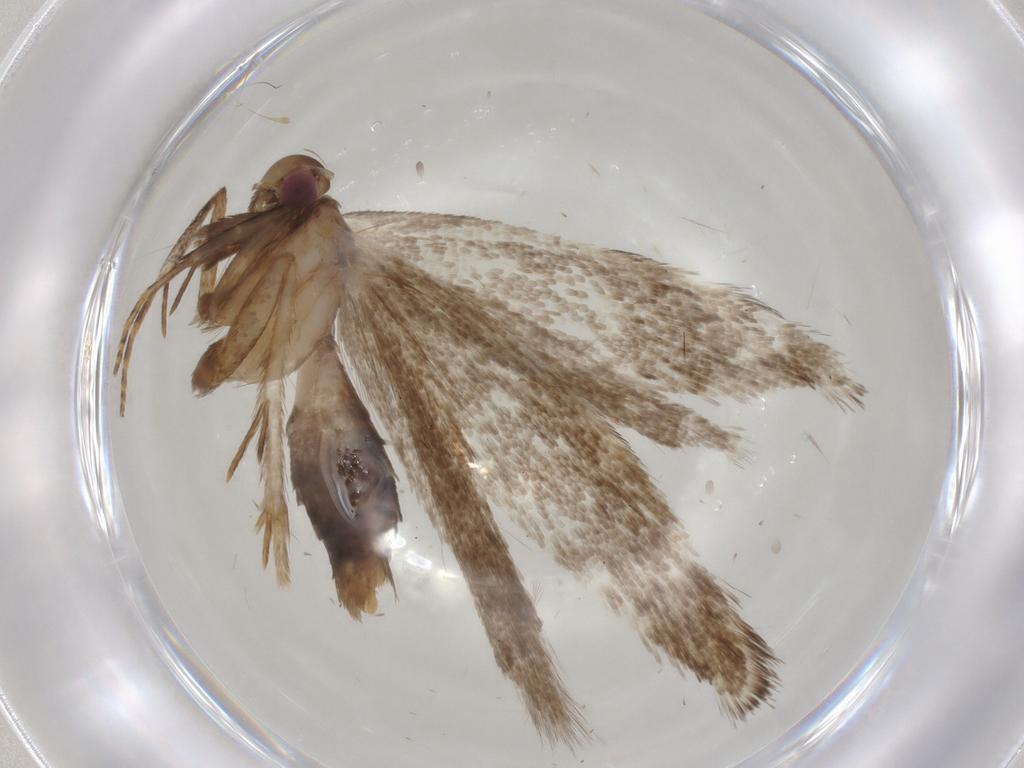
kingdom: Animalia
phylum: Arthropoda
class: Insecta
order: Lepidoptera
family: Gelechiidae
